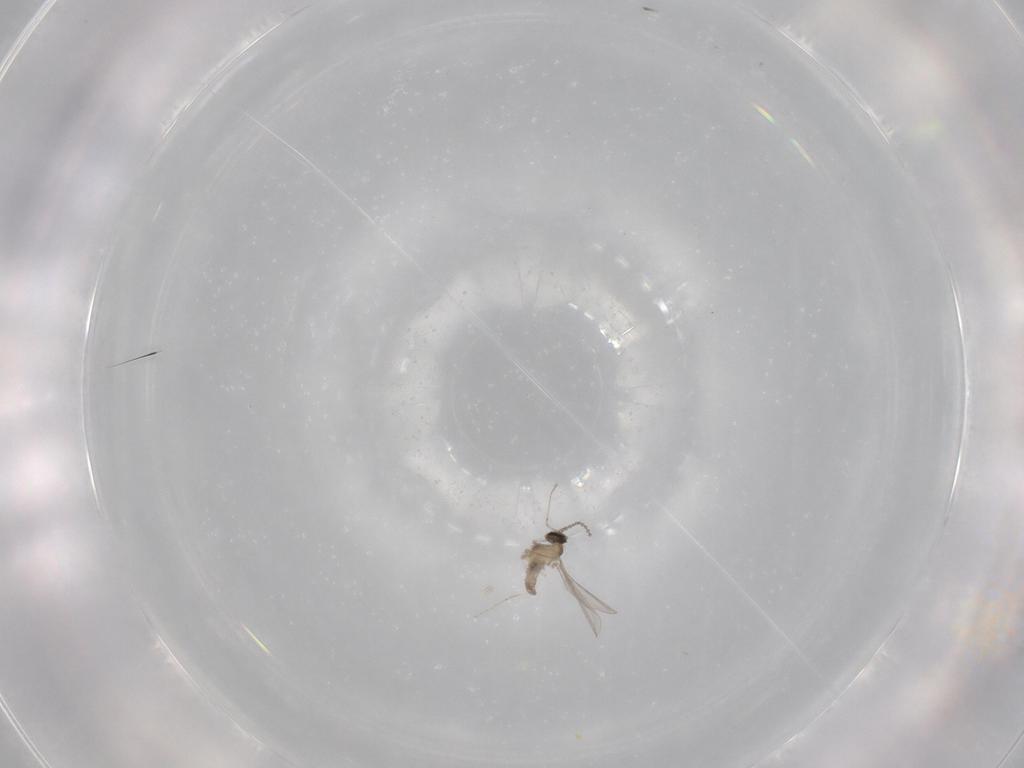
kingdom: Animalia
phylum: Arthropoda
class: Insecta
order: Diptera
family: Cecidomyiidae
